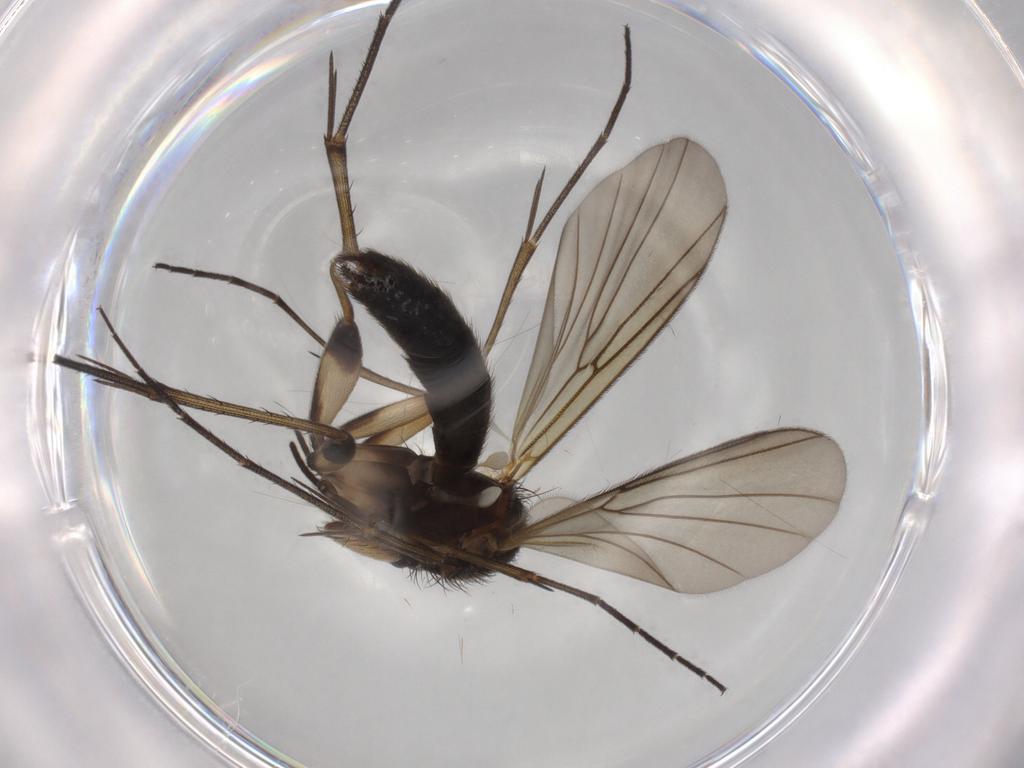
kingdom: Animalia
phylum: Arthropoda
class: Insecta
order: Diptera
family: Mycetophilidae
